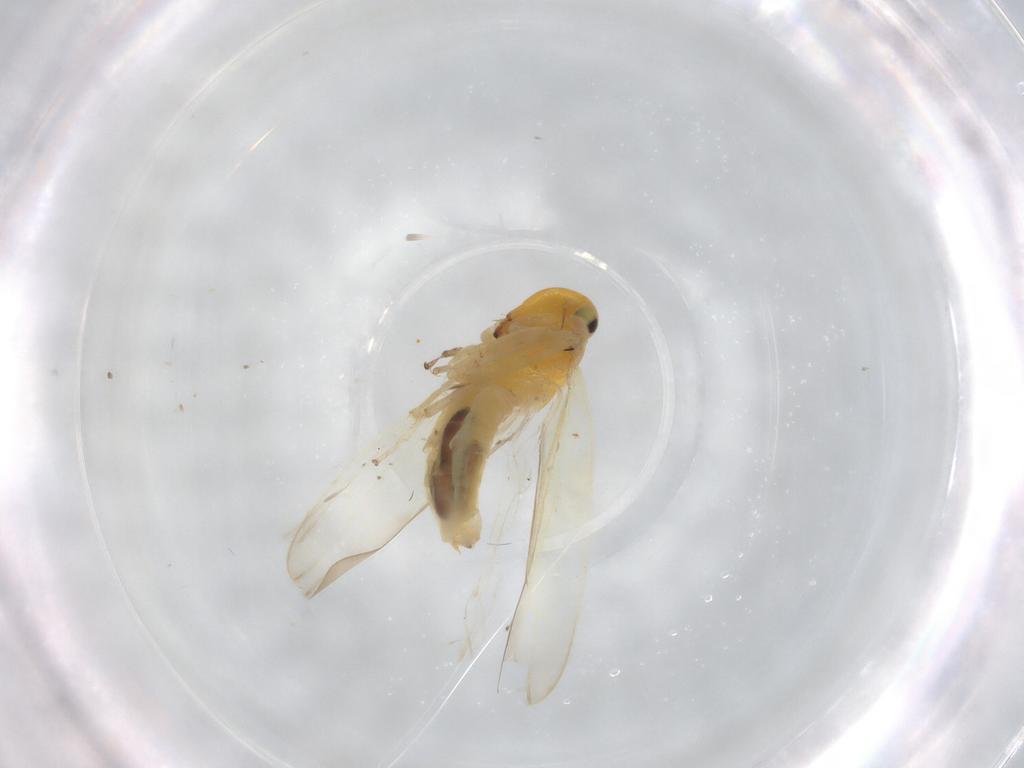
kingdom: Animalia
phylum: Arthropoda
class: Insecta
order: Hemiptera
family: Cicadellidae
